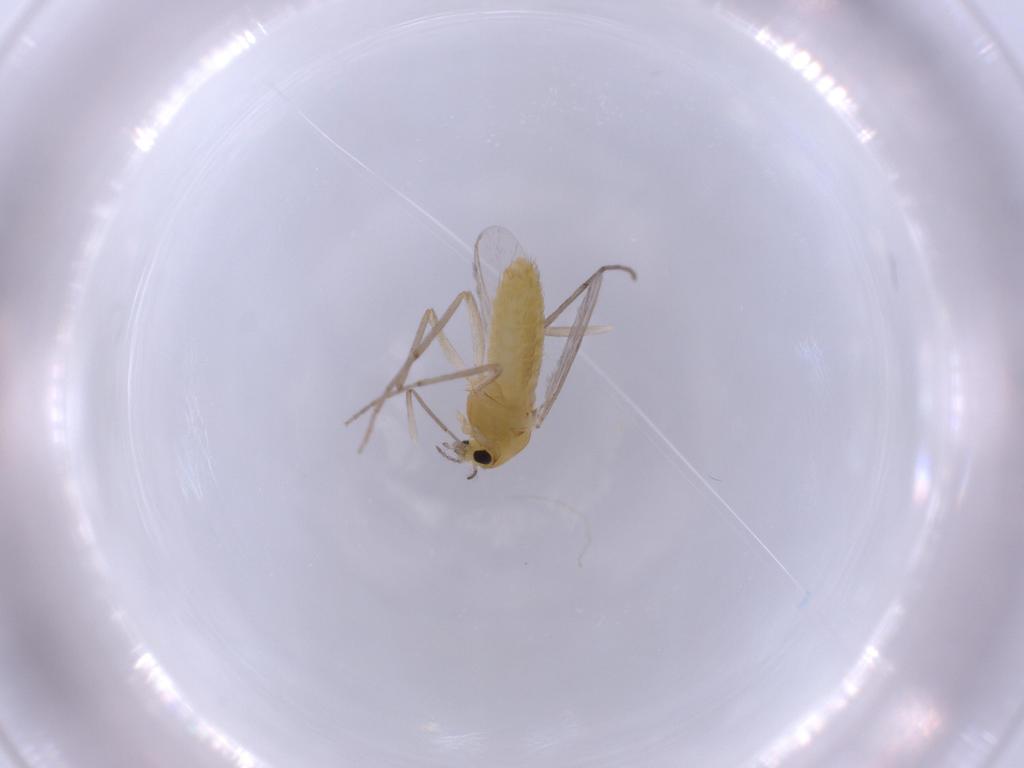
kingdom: Animalia
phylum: Arthropoda
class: Insecta
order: Diptera
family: Chironomidae
